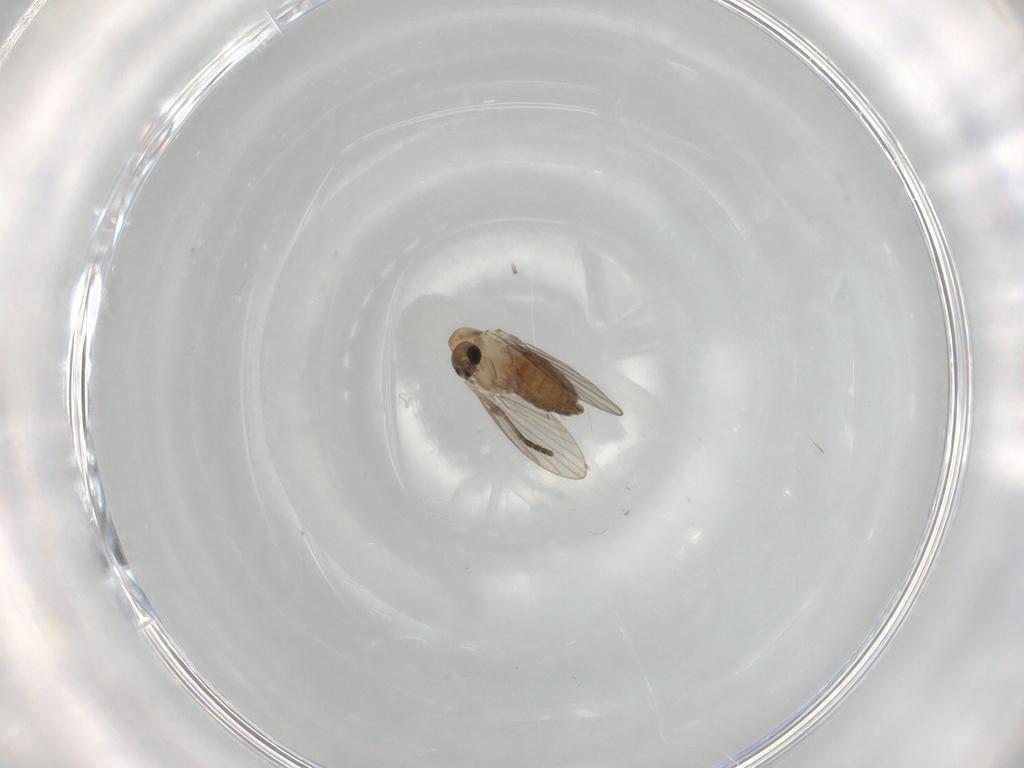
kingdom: Animalia
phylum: Arthropoda
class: Insecta
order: Diptera
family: Psychodidae
